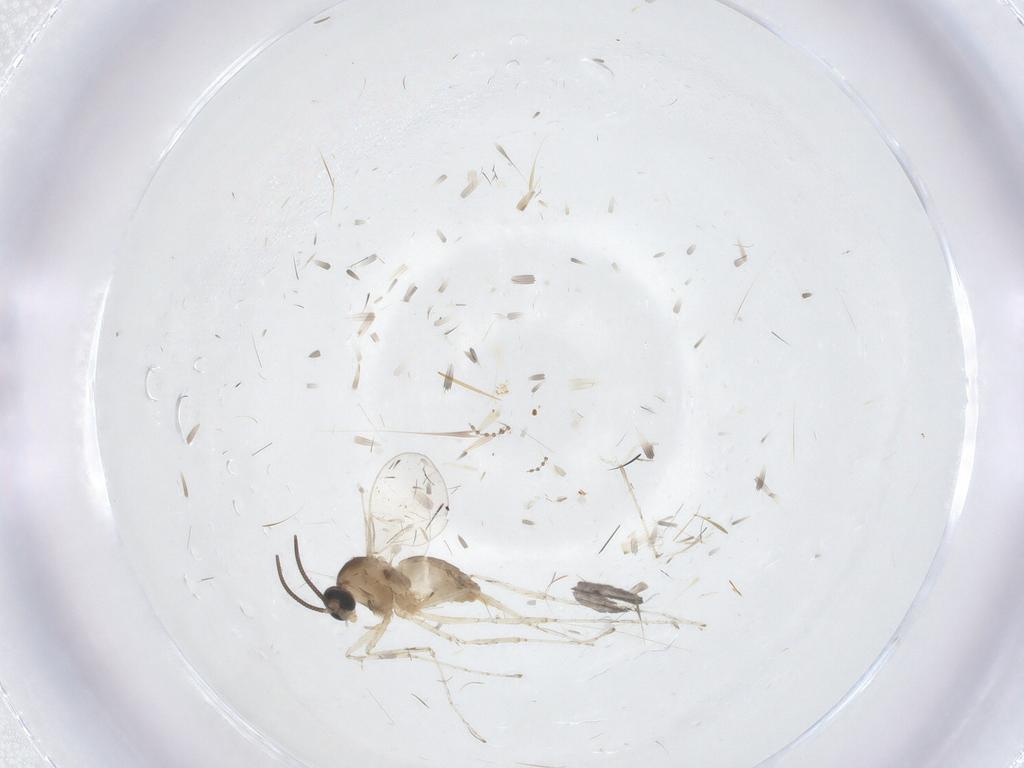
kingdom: Animalia
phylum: Arthropoda
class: Insecta
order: Diptera
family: Cecidomyiidae
